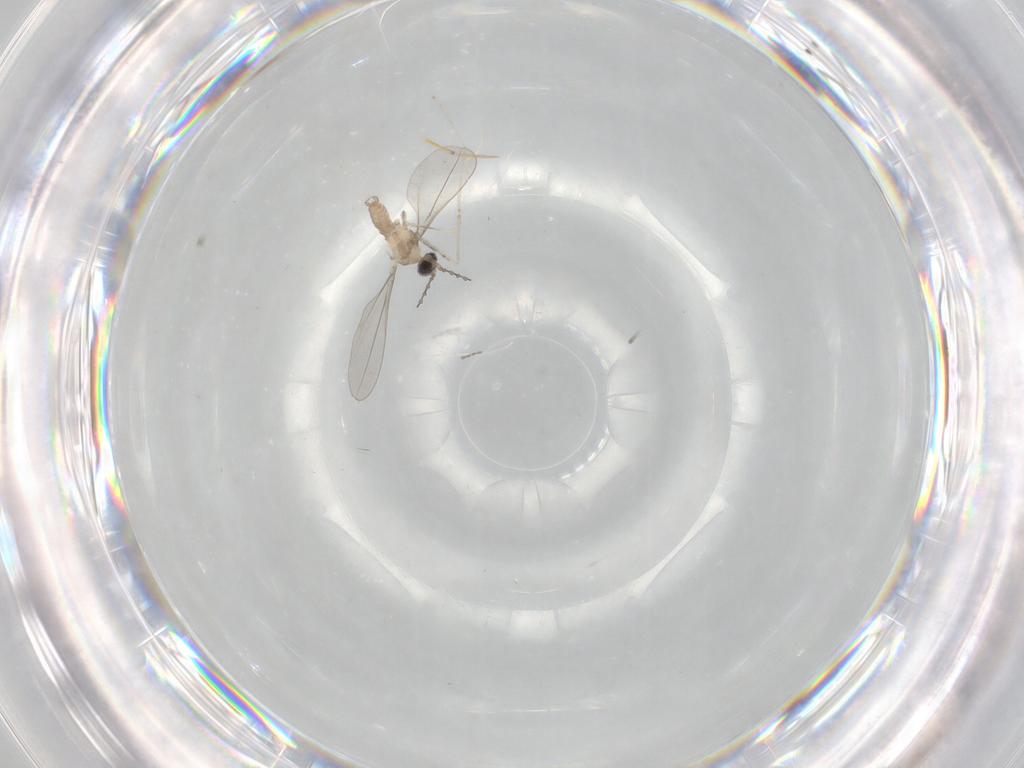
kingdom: Animalia
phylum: Arthropoda
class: Insecta
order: Diptera
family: Cecidomyiidae
